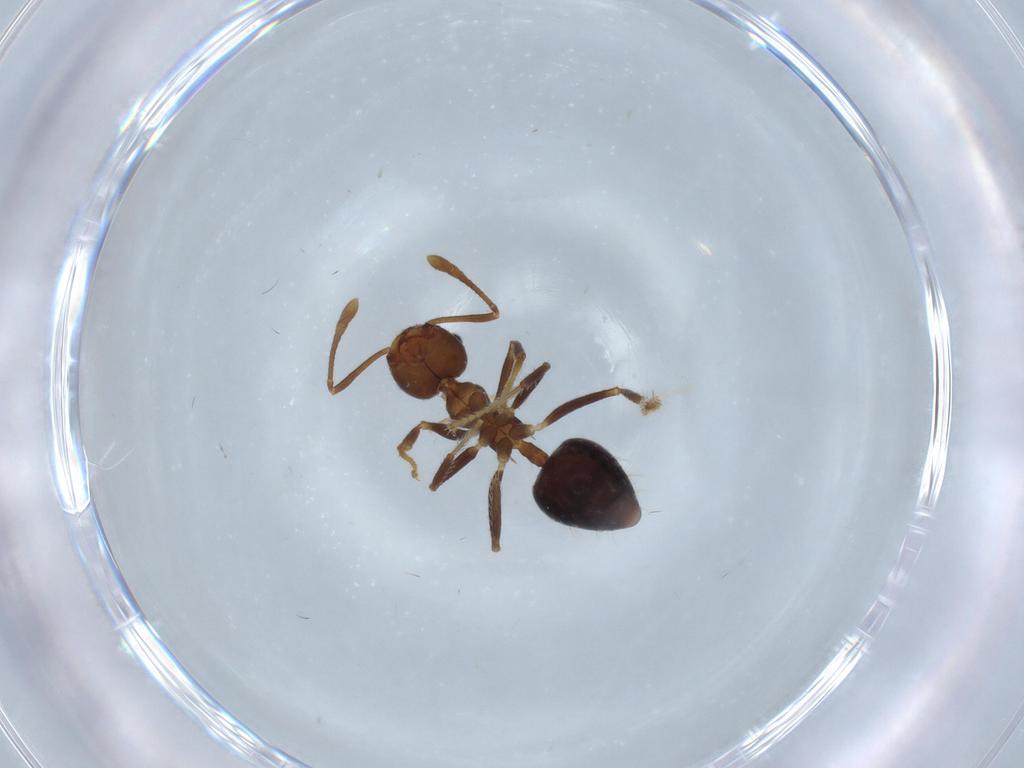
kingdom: Animalia
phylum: Arthropoda
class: Insecta
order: Hymenoptera
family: Formicidae
